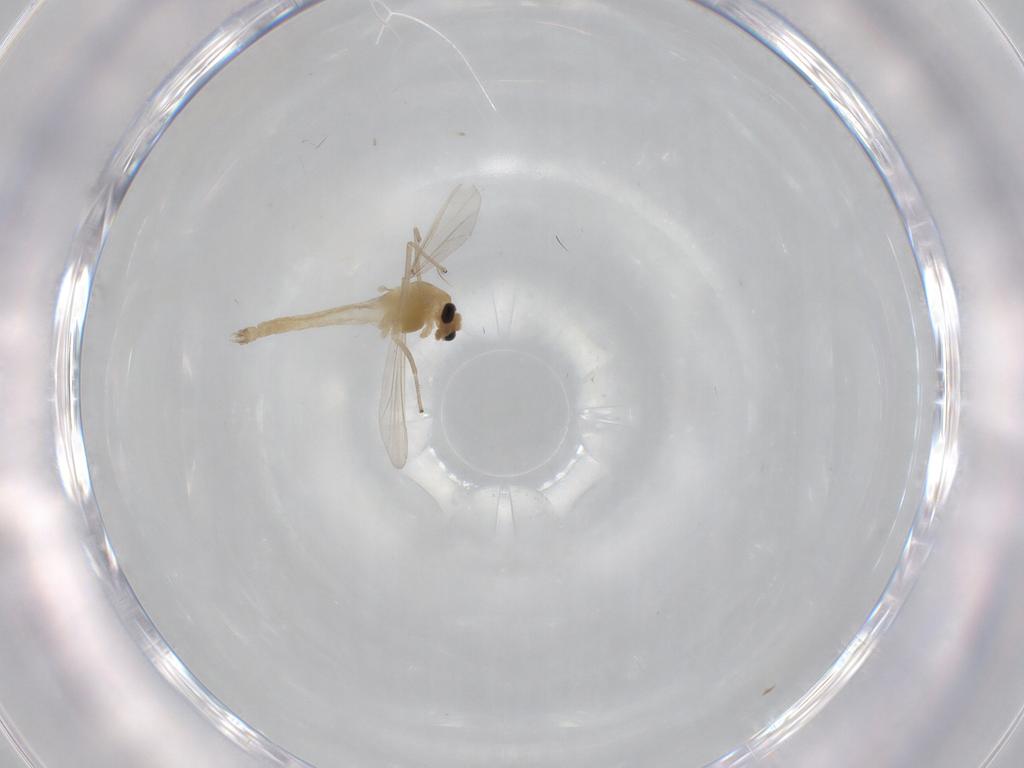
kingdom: Animalia
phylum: Arthropoda
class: Insecta
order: Diptera
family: Chironomidae
